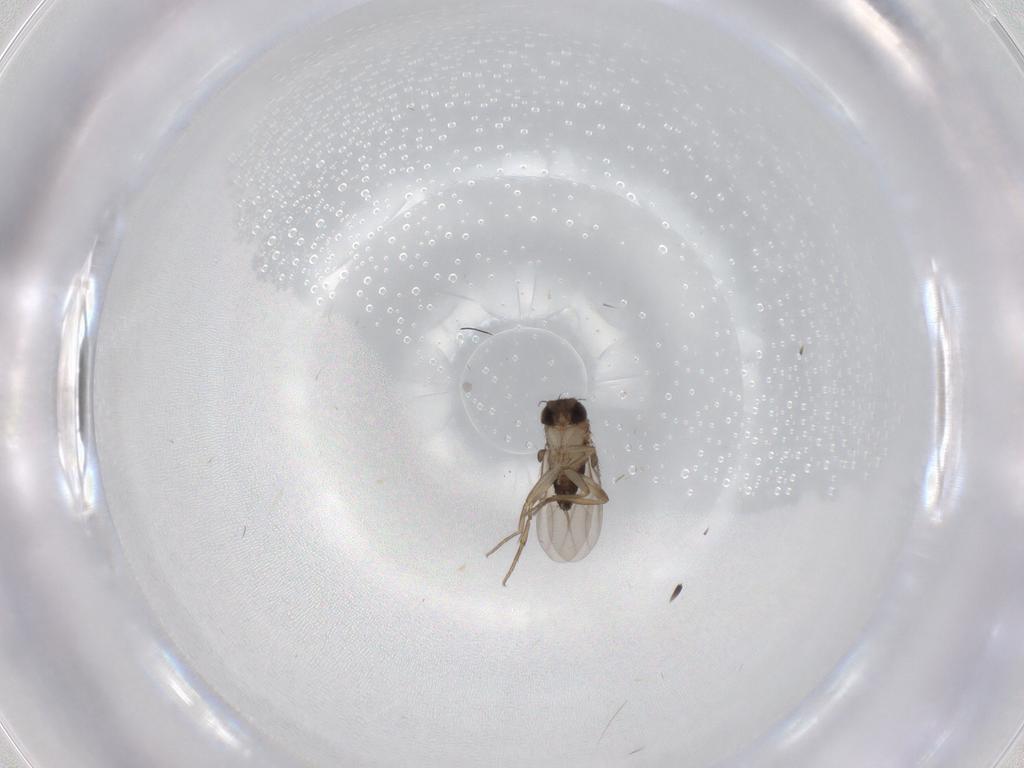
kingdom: Animalia
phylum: Arthropoda
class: Insecta
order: Diptera
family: Phoridae
